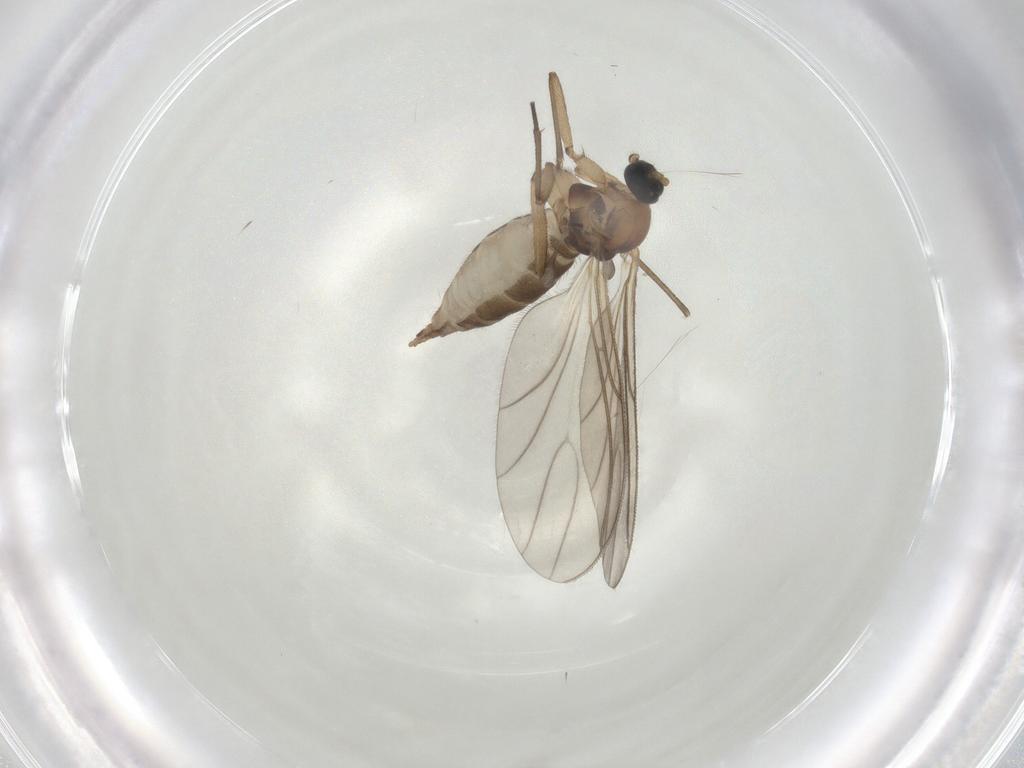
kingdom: Animalia
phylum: Arthropoda
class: Insecta
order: Diptera
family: Sciaridae
